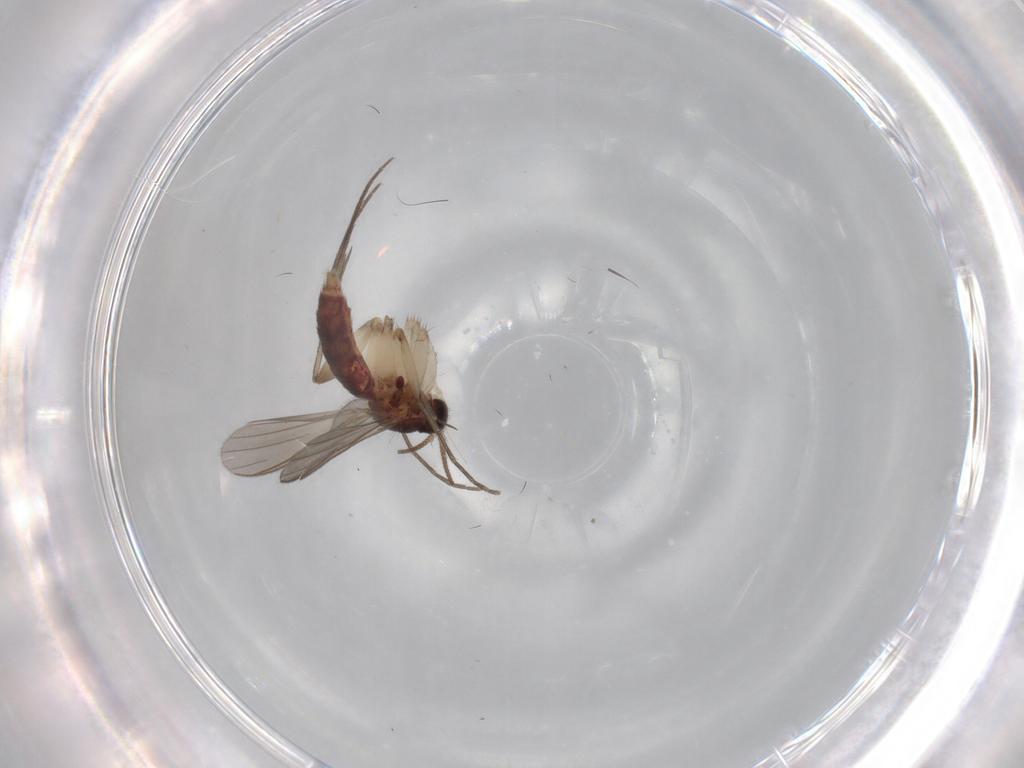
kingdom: Animalia
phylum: Arthropoda
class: Insecta
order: Diptera
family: Mycetophilidae
